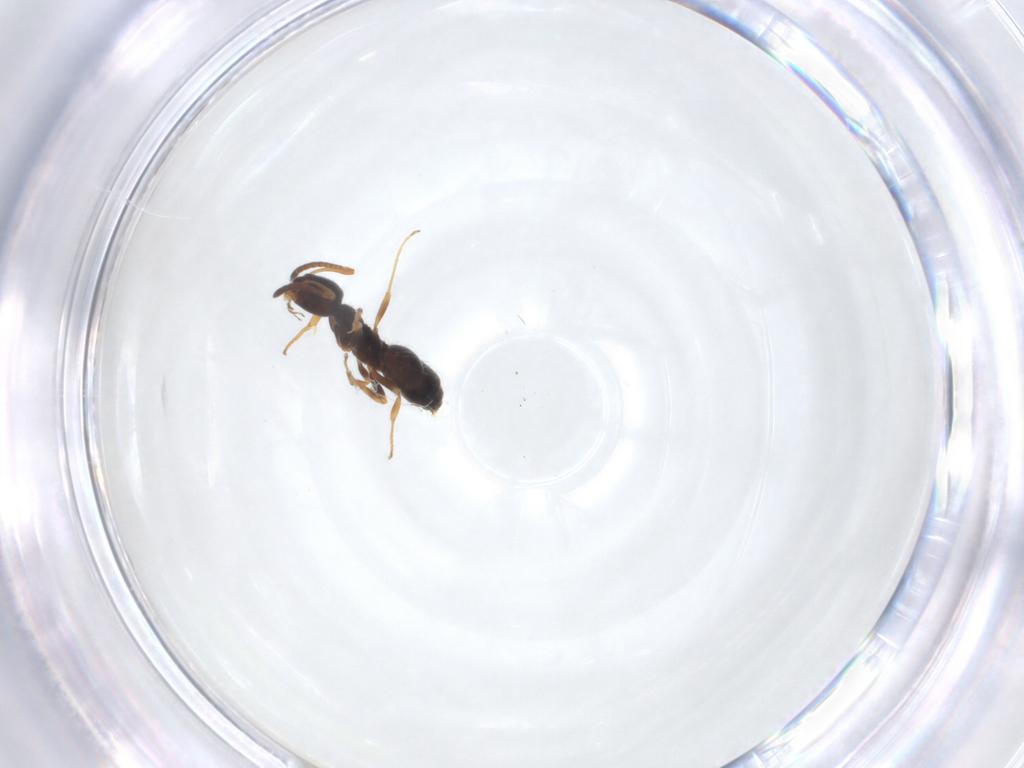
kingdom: Animalia
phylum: Arthropoda
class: Insecta
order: Hymenoptera
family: Formicidae
